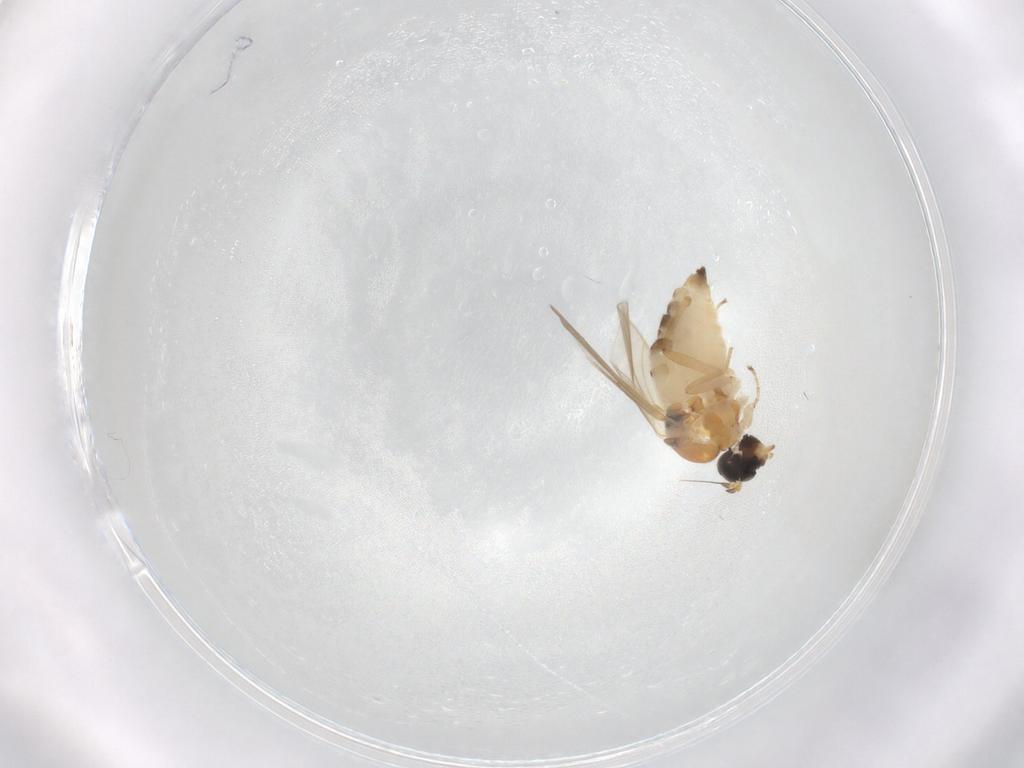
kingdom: Animalia
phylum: Arthropoda
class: Insecta
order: Diptera
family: Hybotidae
